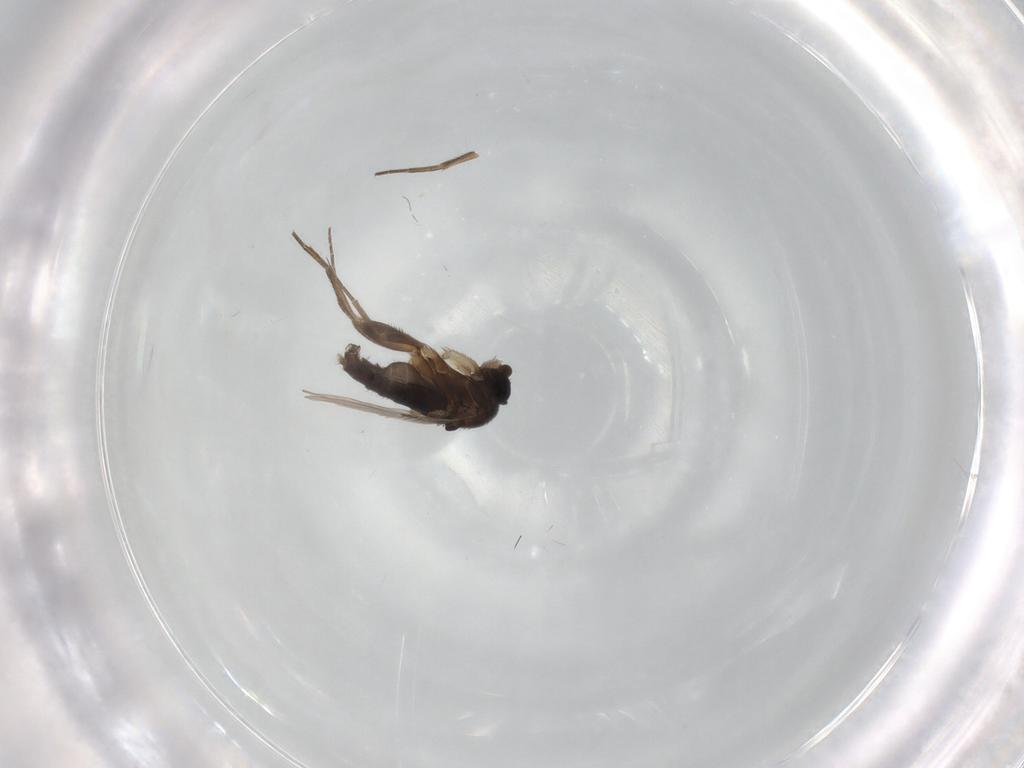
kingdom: Animalia
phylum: Arthropoda
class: Insecta
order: Diptera
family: Phoridae
